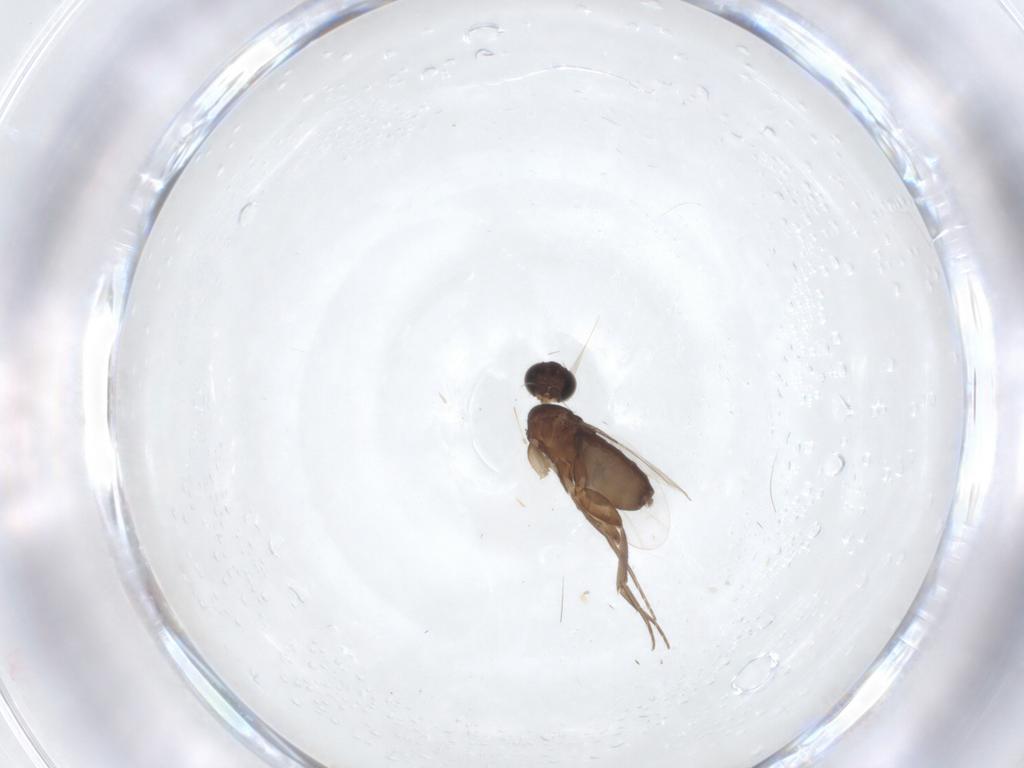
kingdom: Animalia
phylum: Arthropoda
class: Insecta
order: Diptera
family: Phoridae
